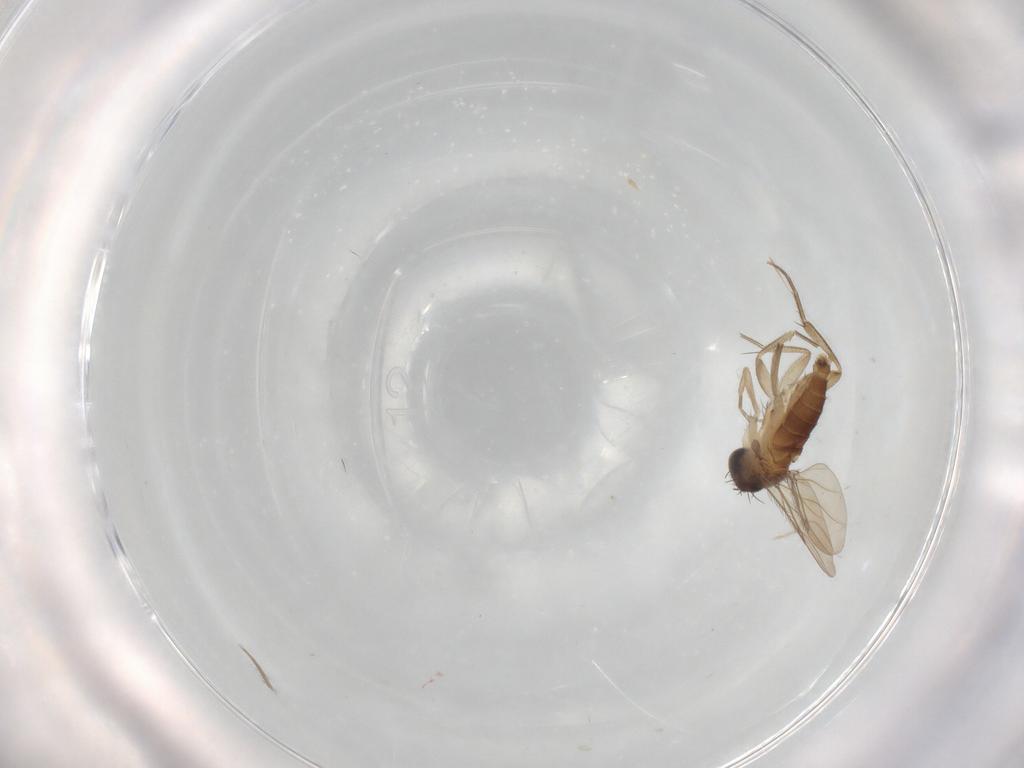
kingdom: Animalia
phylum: Arthropoda
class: Insecta
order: Diptera
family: Cecidomyiidae
